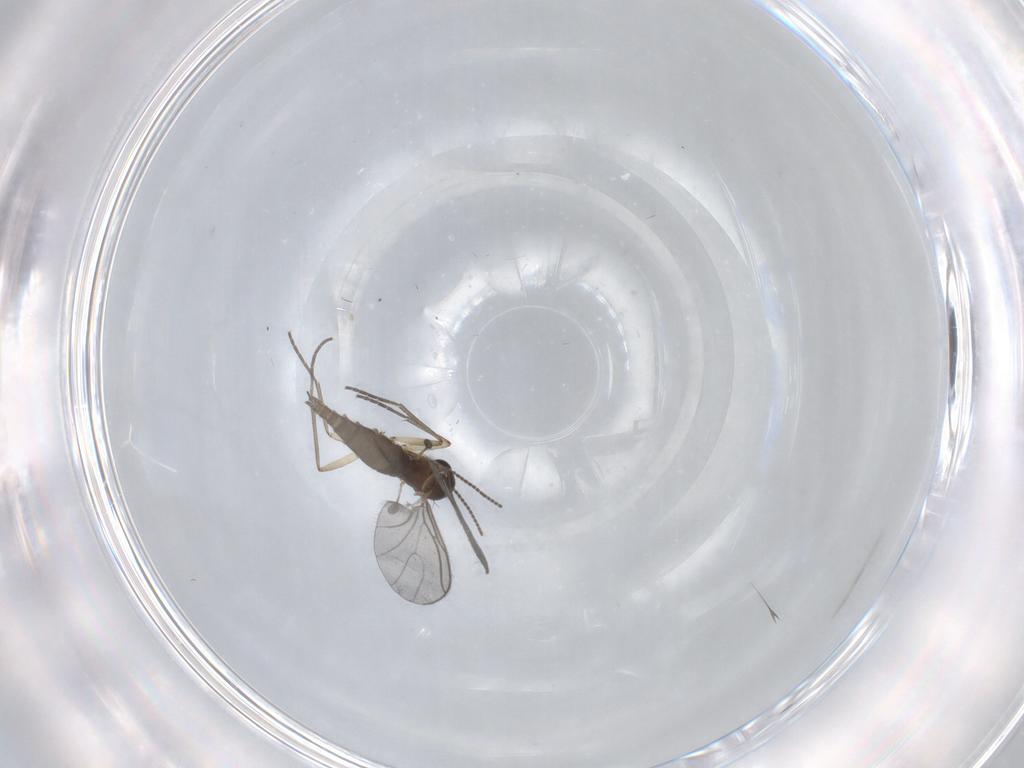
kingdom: Animalia
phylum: Arthropoda
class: Insecta
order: Diptera
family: Sciaridae
